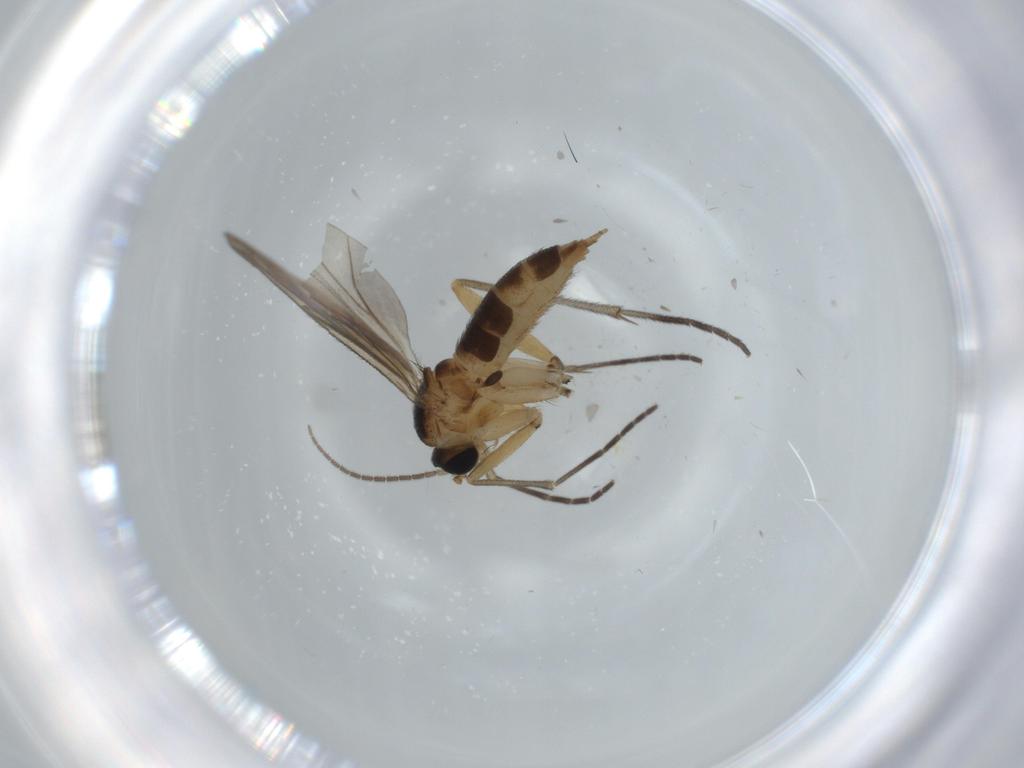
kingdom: Animalia
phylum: Arthropoda
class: Insecta
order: Diptera
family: Sciaridae
